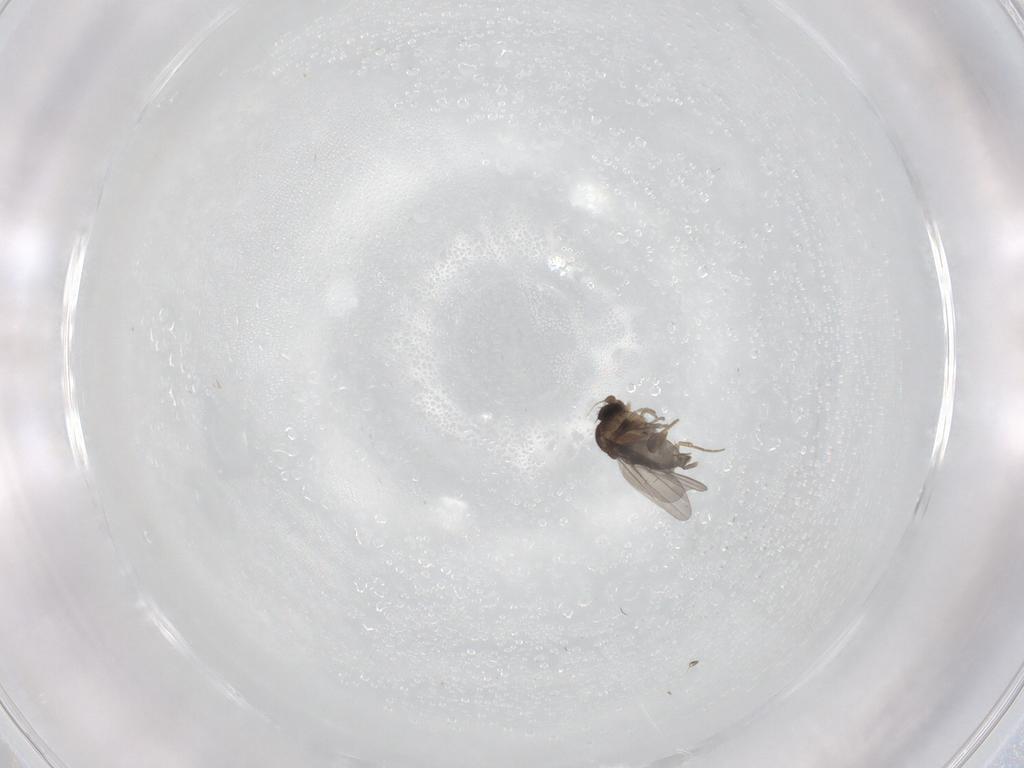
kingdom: Animalia
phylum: Arthropoda
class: Insecta
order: Diptera
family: Phoridae
